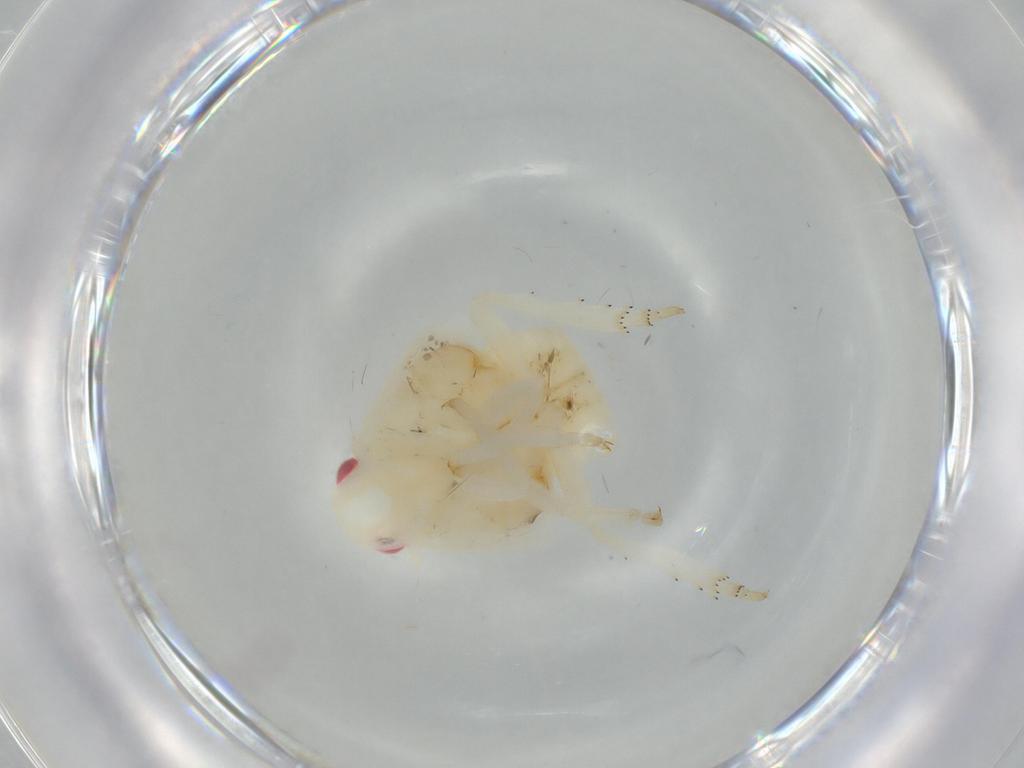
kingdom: Animalia
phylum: Arthropoda
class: Insecta
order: Hemiptera
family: Flatidae
